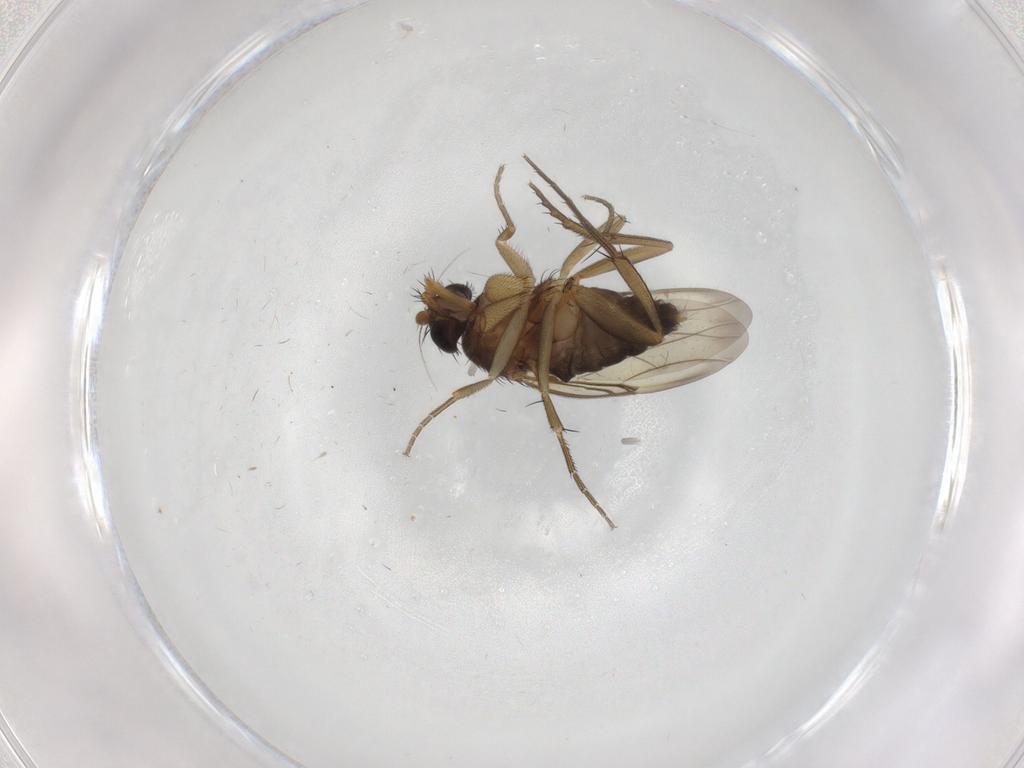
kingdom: Animalia
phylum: Arthropoda
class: Insecta
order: Diptera
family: Phoridae
